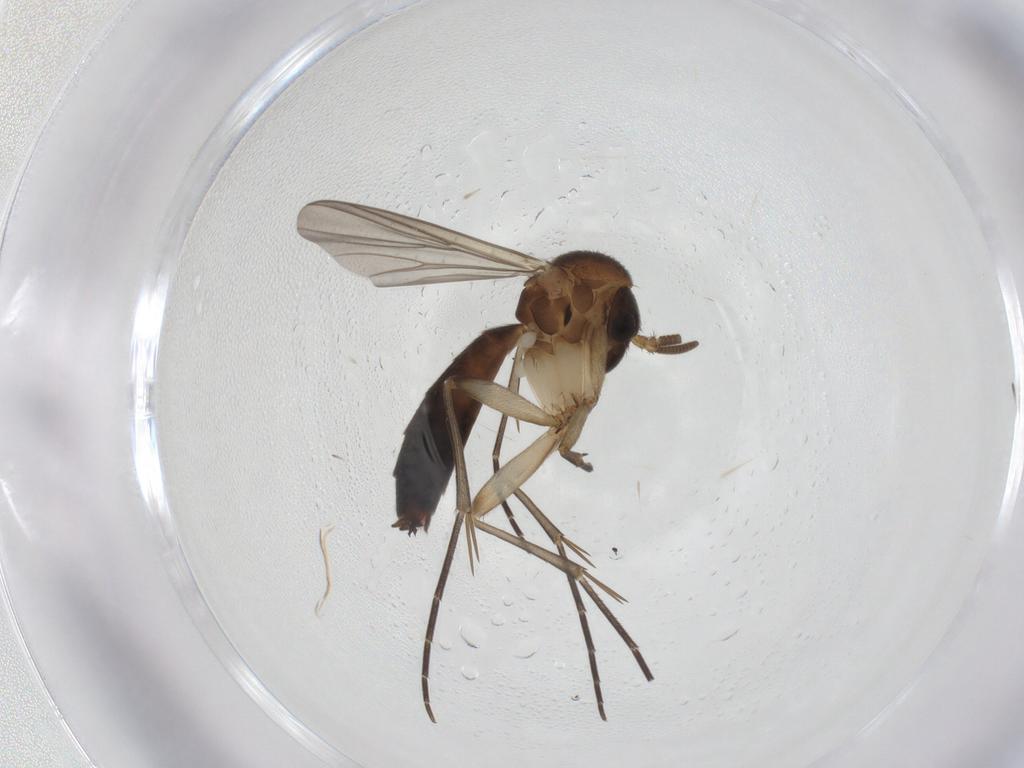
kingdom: Animalia
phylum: Arthropoda
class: Insecta
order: Diptera
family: Mycetophilidae
